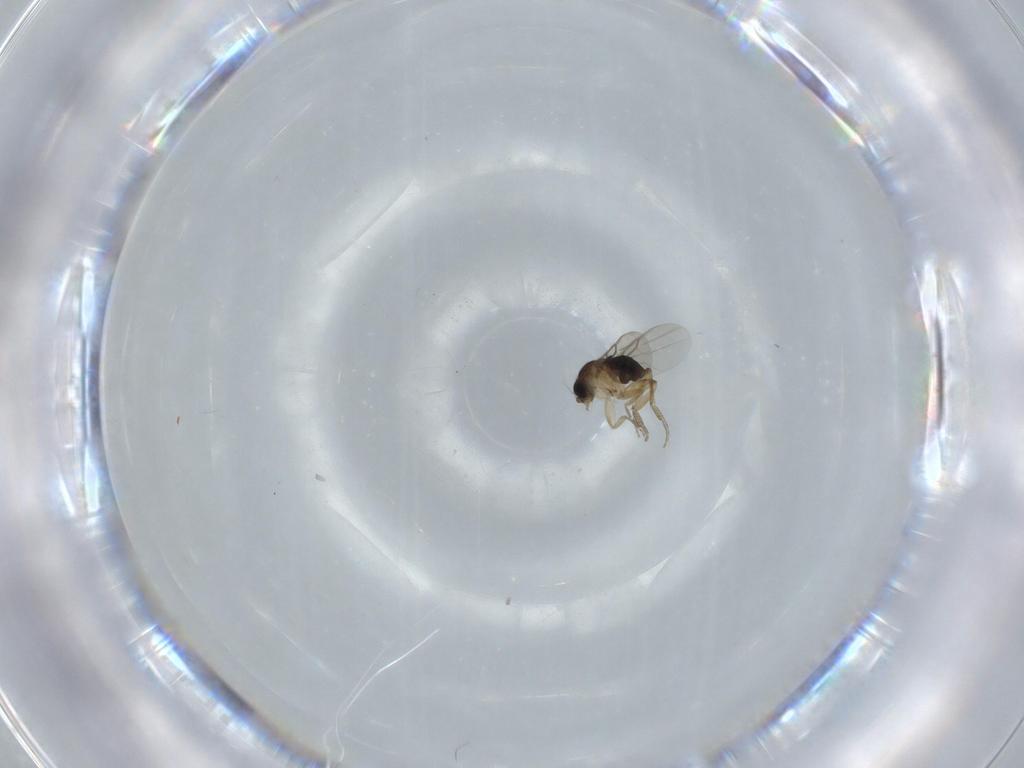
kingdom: Animalia
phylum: Arthropoda
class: Insecta
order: Diptera
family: Phoridae
